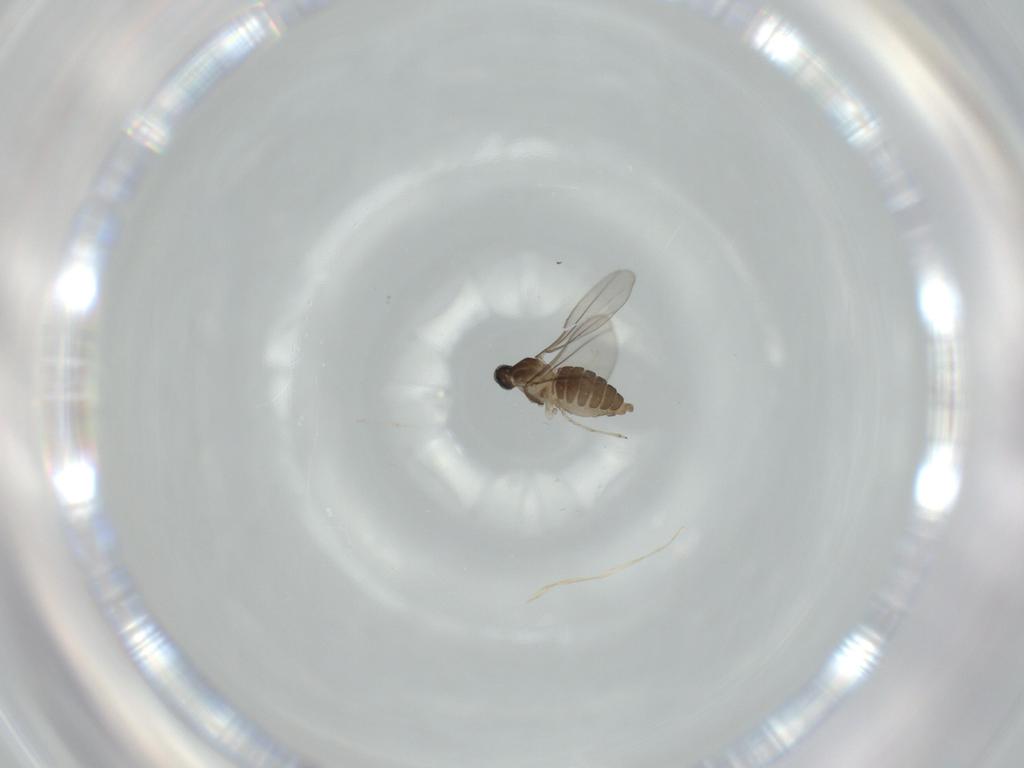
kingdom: Animalia
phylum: Arthropoda
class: Insecta
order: Diptera
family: Cecidomyiidae
